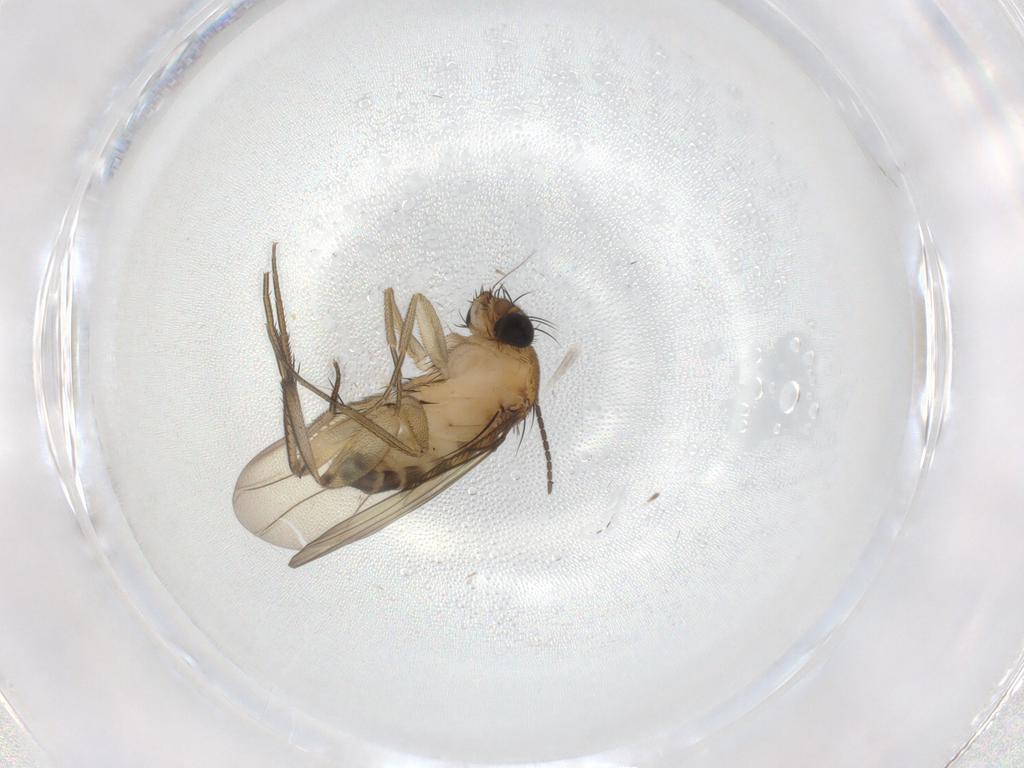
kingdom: Animalia
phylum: Arthropoda
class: Insecta
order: Diptera
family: Phoridae
